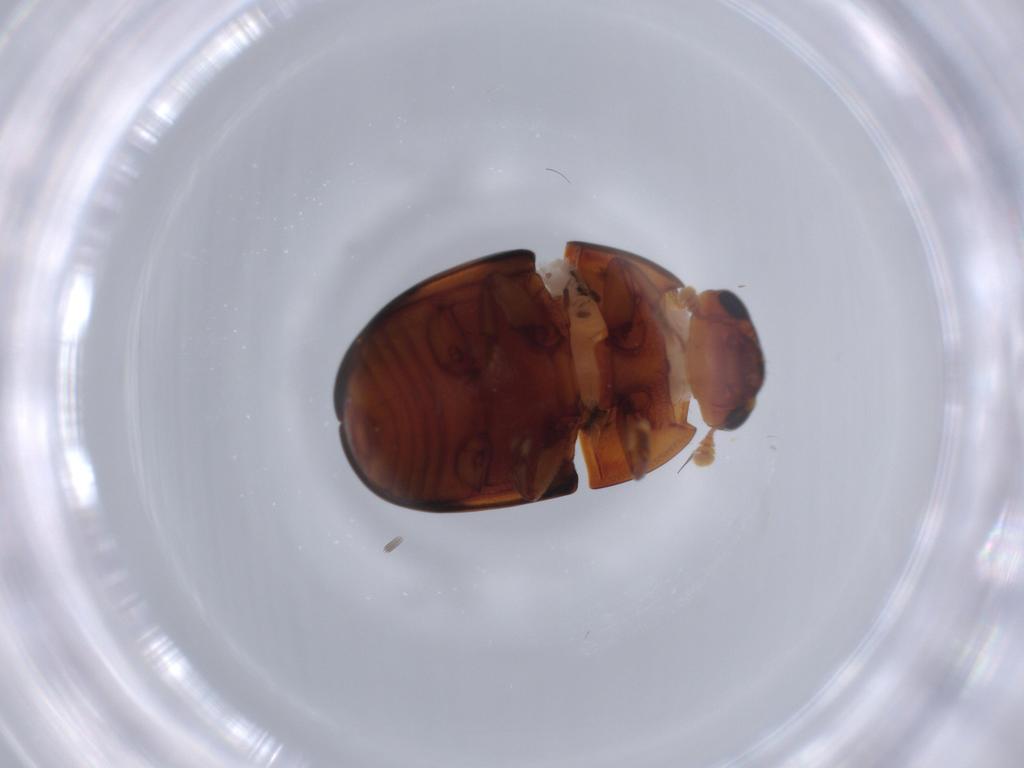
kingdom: Animalia
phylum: Arthropoda
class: Insecta
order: Coleoptera
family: Nitidulidae
